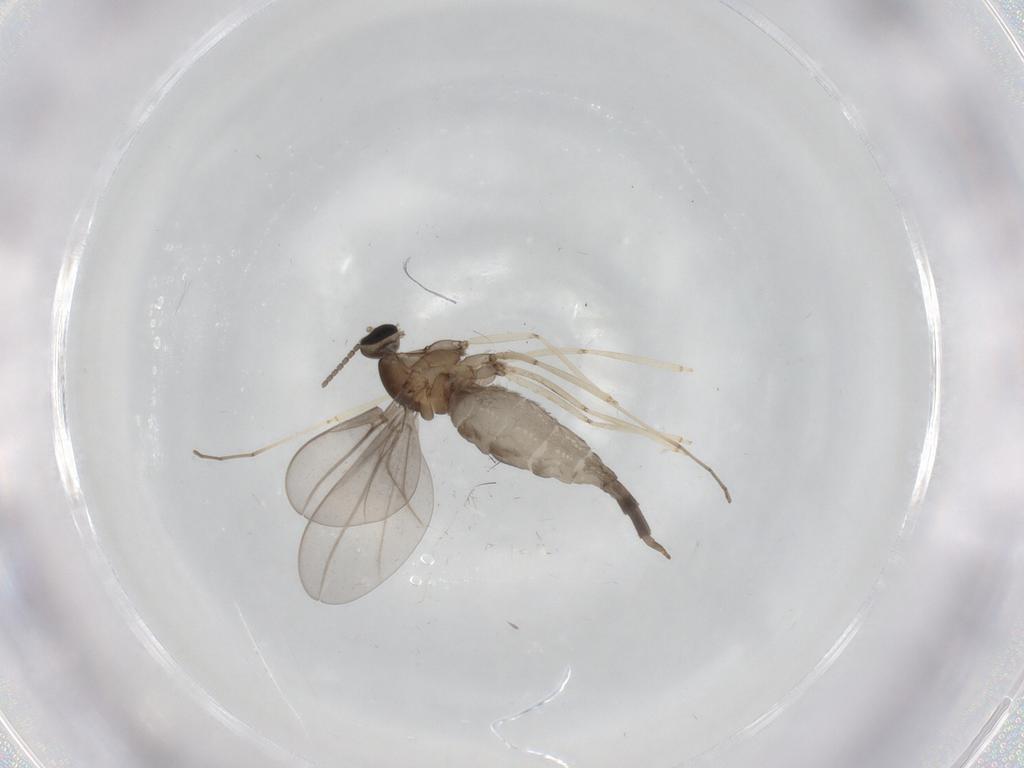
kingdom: Animalia
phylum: Arthropoda
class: Insecta
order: Diptera
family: Cecidomyiidae
